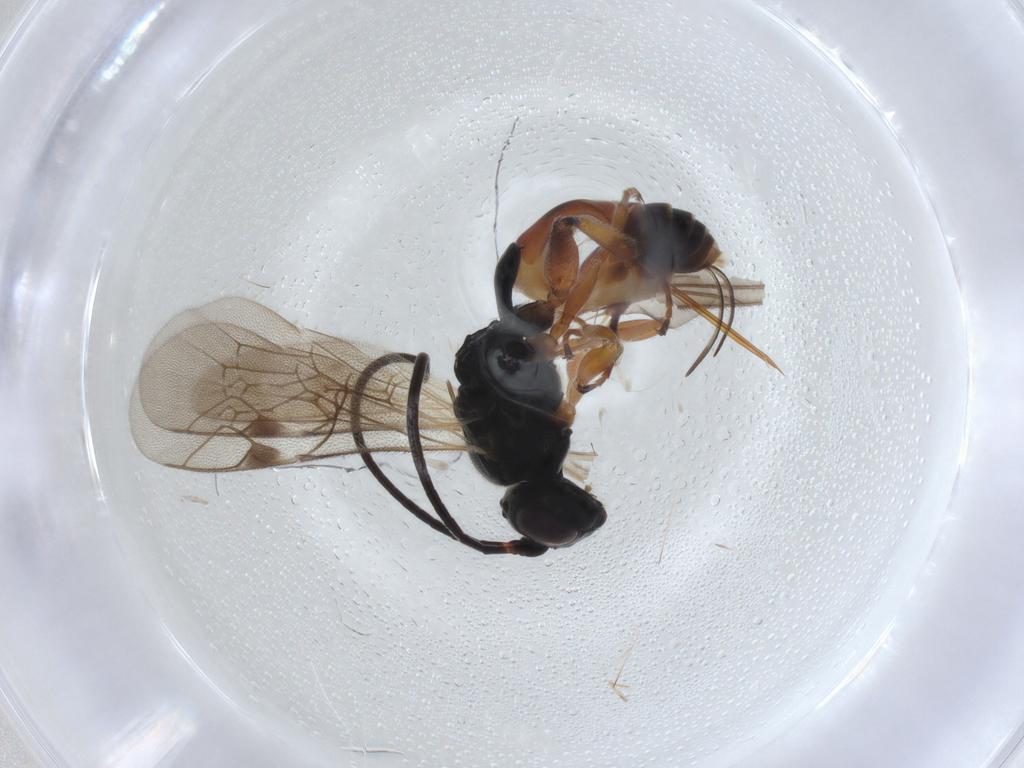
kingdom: Animalia
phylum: Arthropoda
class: Insecta
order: Hymenoptera
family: Ichneumonidae
